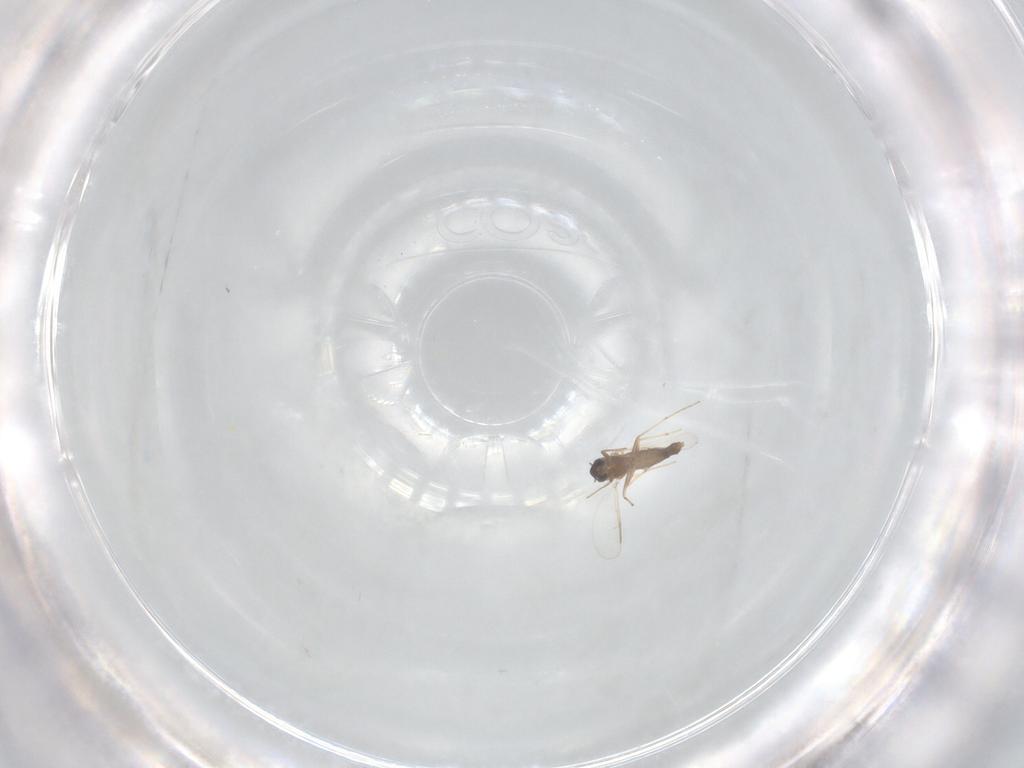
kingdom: Animalia
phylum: Arthropoda
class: Insecta
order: Diptera
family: Chironomidae
